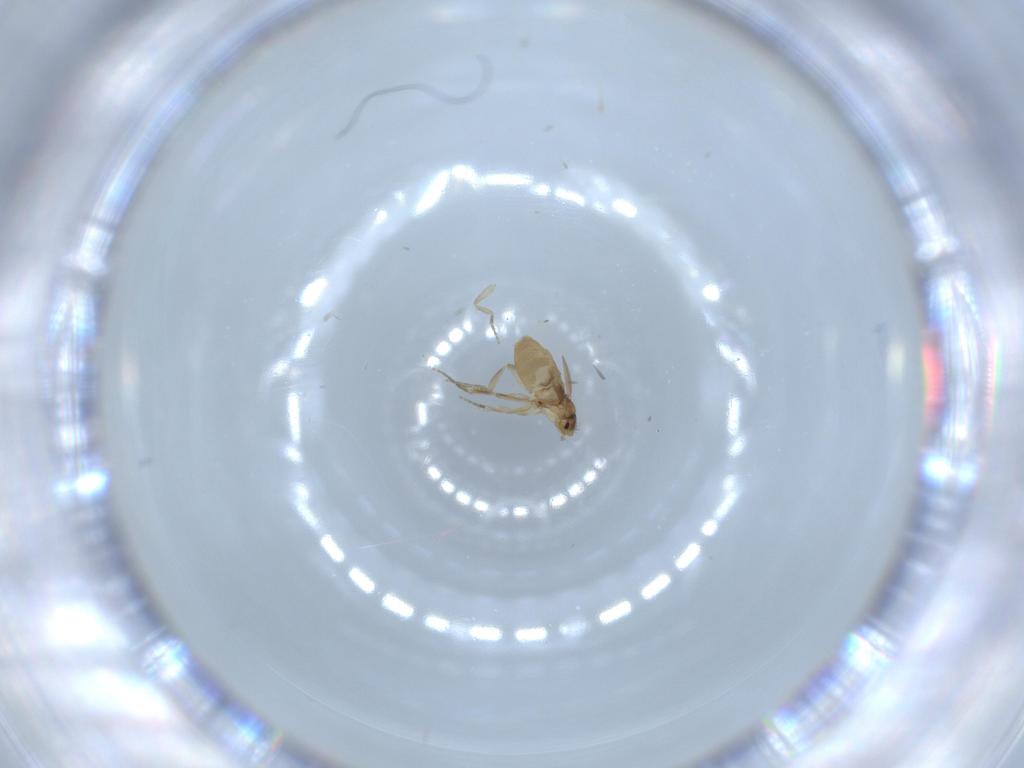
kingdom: Animalia
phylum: Arthropoda
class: Insecta
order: Diptera
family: Phoridae
